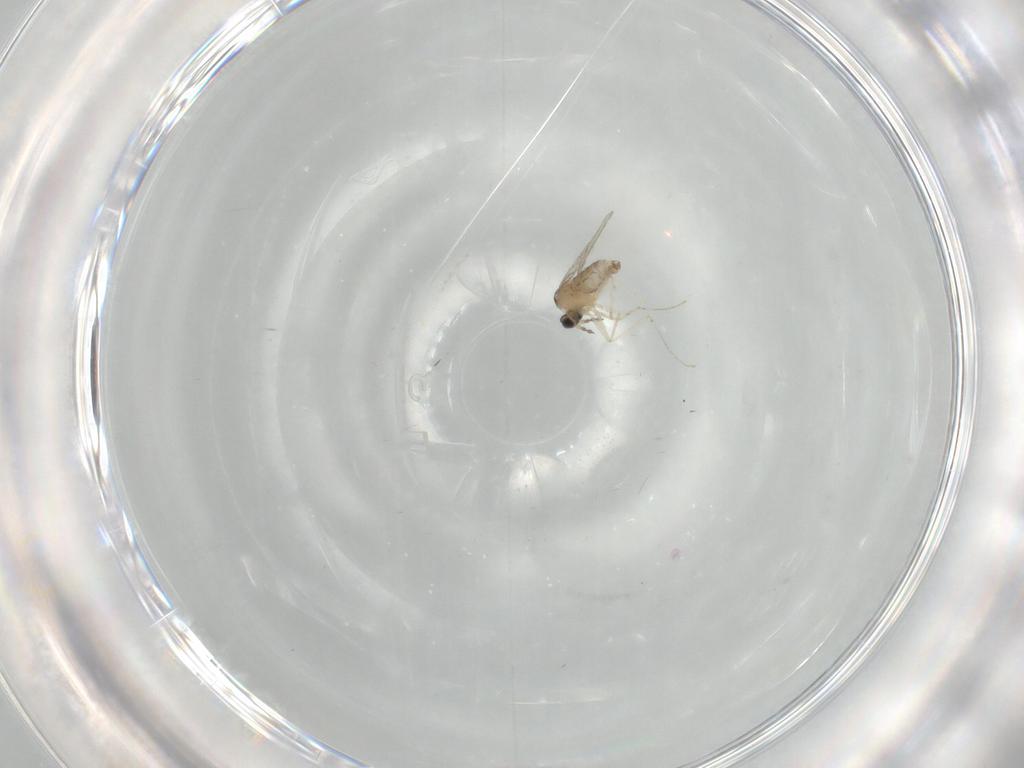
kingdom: Animalia
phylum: Arthropoda
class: Insecta
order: Diptera
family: Cecidomyiidae
